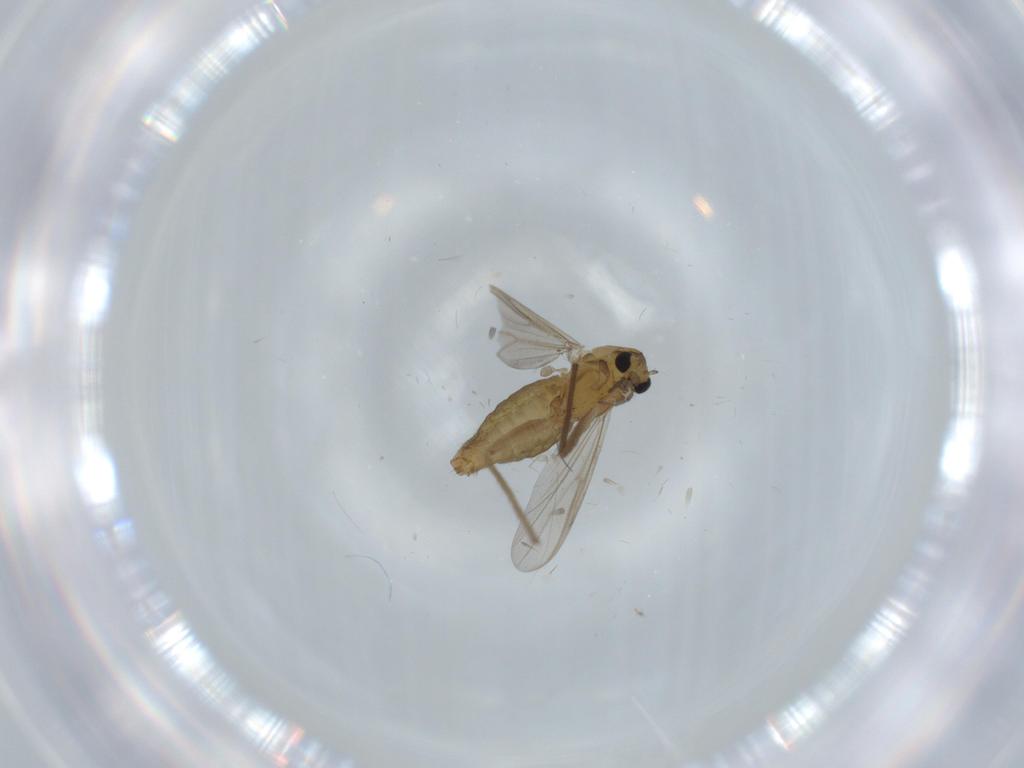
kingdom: Animalia
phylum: Arthropoda
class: Insecta
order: Diptera
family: Chironomidae
